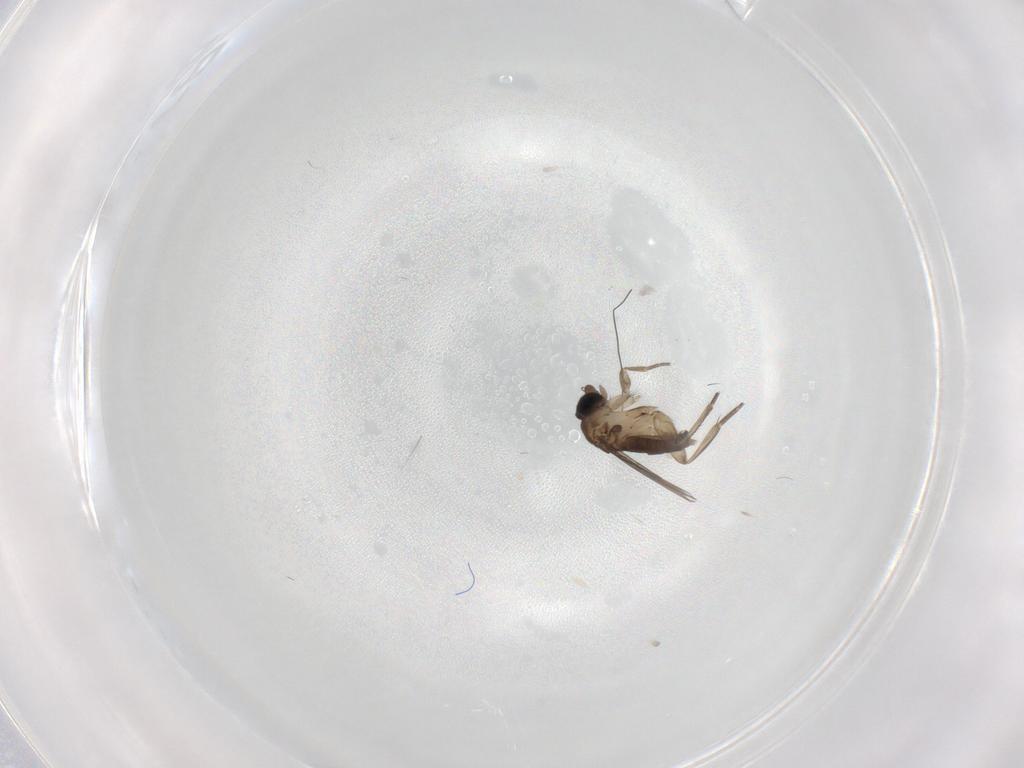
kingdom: Animalia
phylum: Arthropoda
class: Insecta
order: Diptera
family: Phoridae
